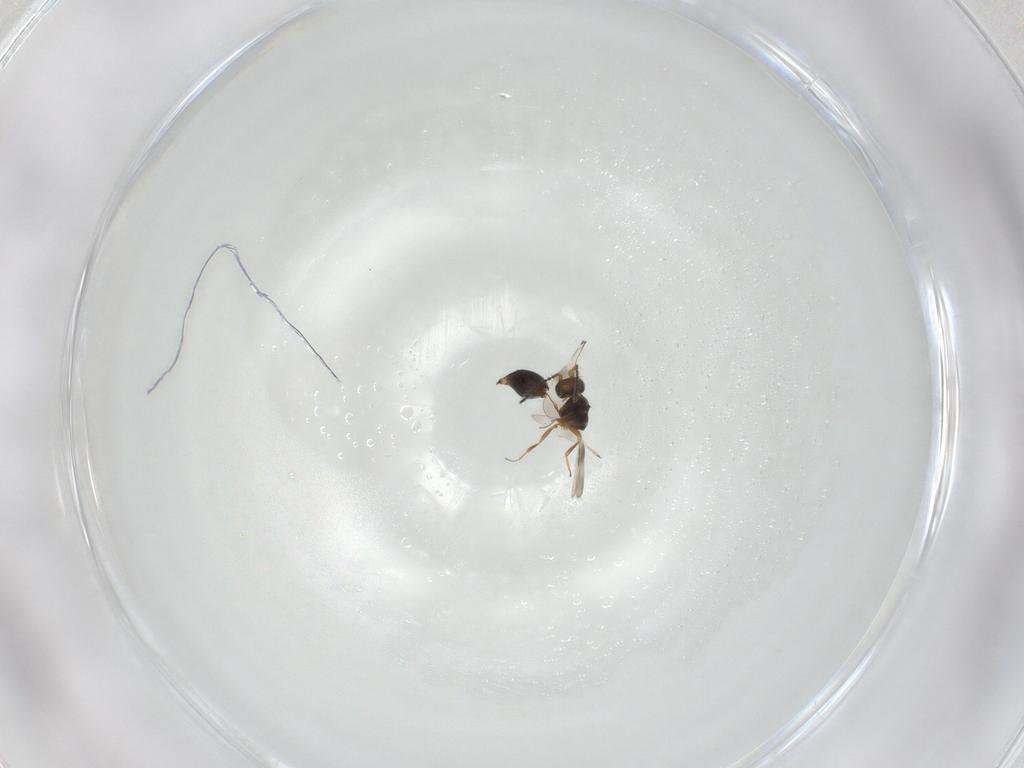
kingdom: Animalia
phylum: Arthropoda
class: Insecta
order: Hymenoptera
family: Ceraphronidae
